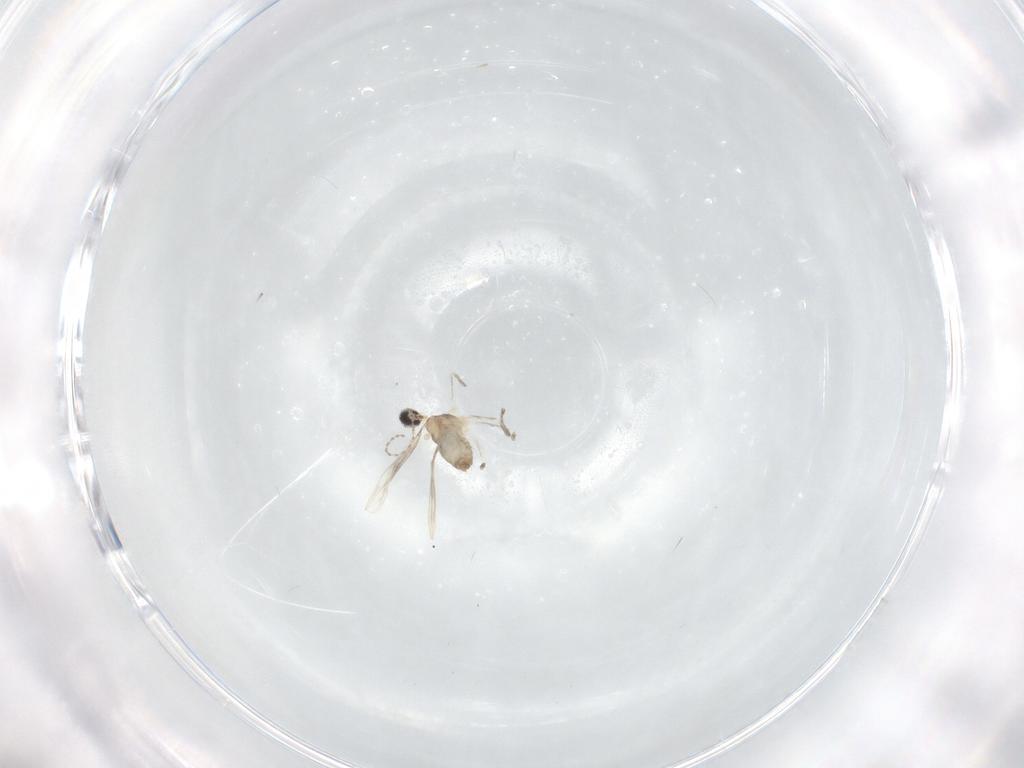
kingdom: Animalia
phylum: Arthropoda
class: Insecta
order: Diptera
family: Cecidomyiidae
